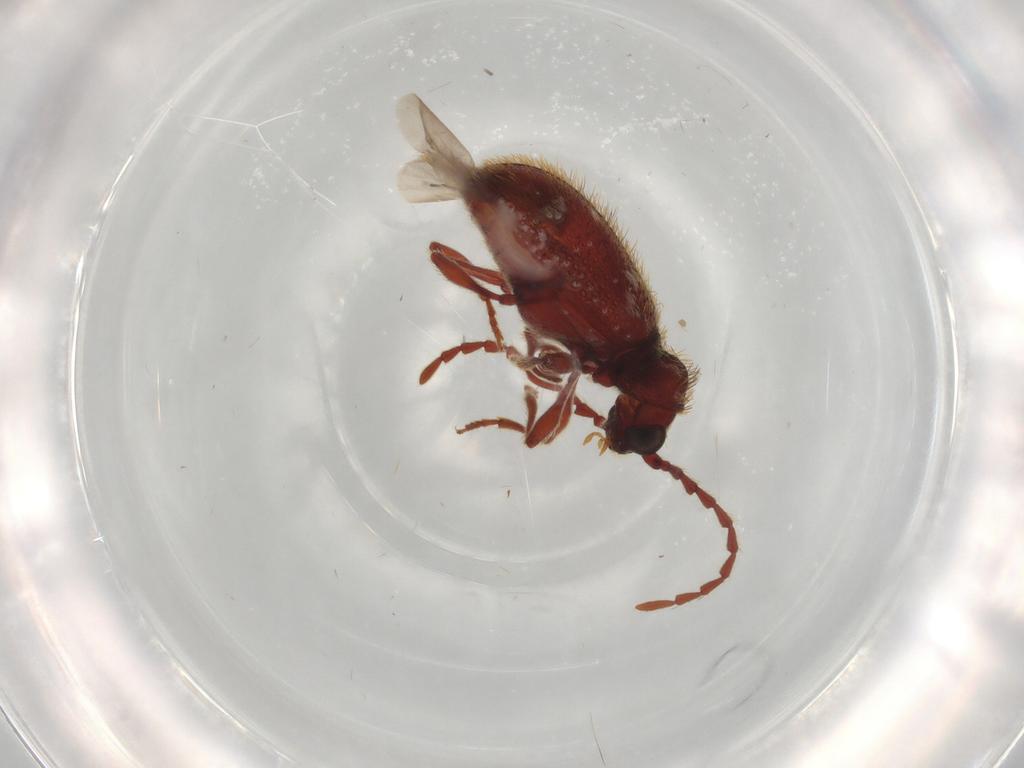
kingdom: Animalia
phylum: Arthropoda
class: Insecta
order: Coleoptera
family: Ptinidae
